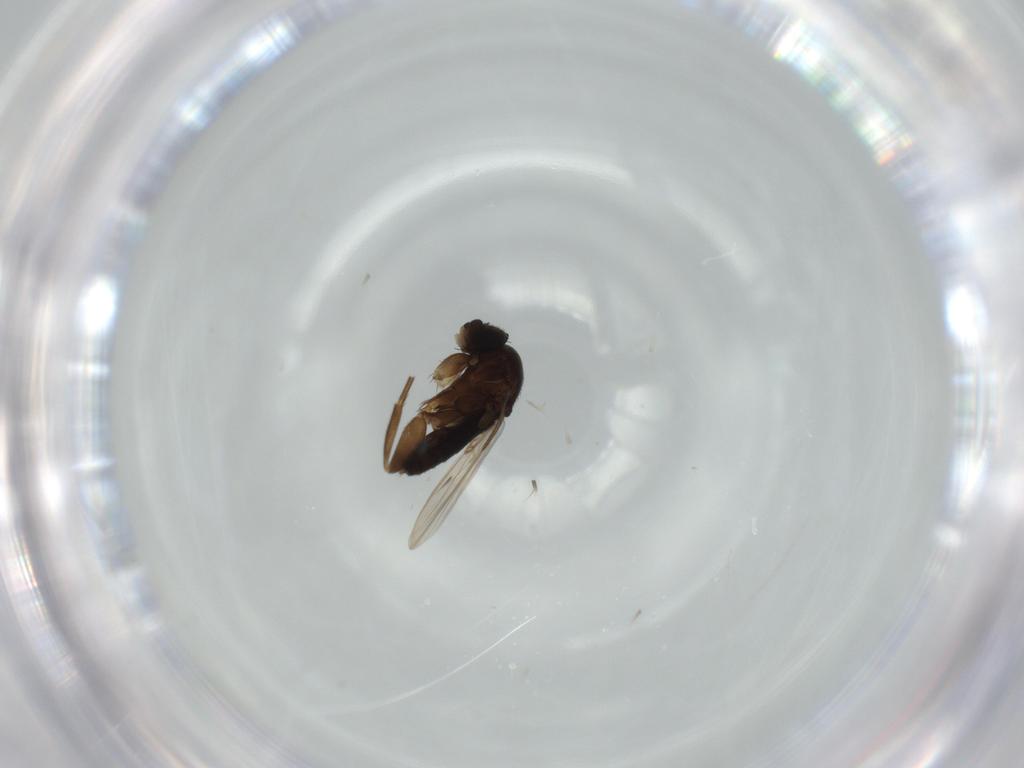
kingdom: Animalia
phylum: Arthropoda
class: Insecta
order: Diptera
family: Phoridae
